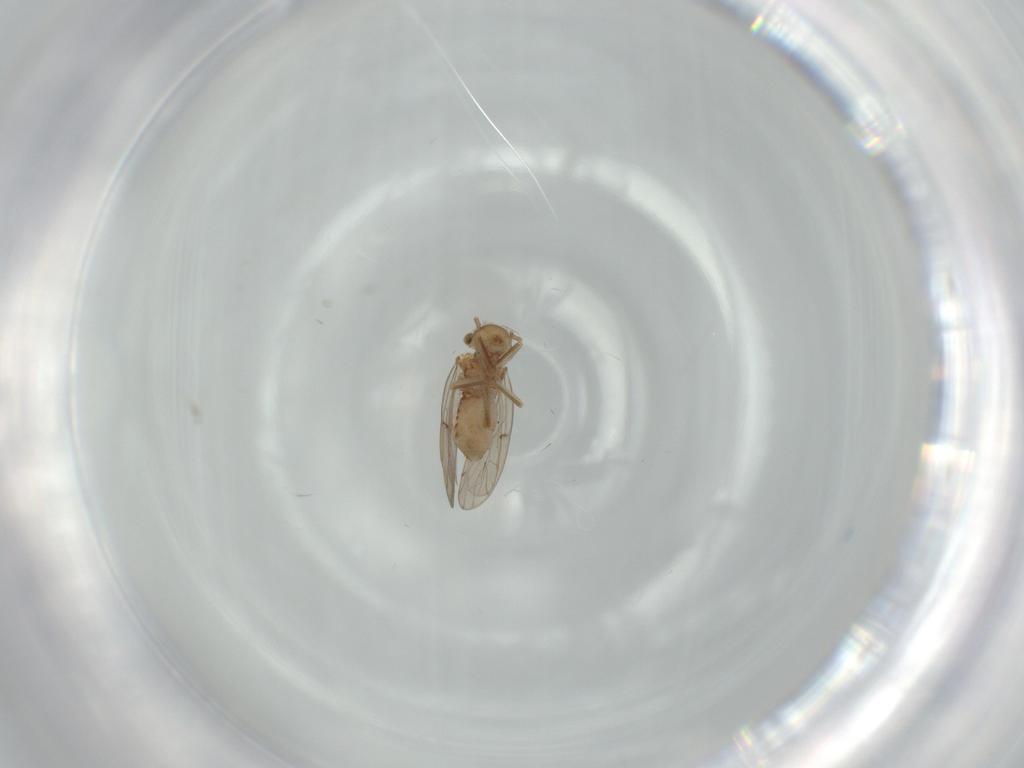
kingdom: Animalia
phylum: Arthropoda
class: Insecta
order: Psocodea
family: Ectopsocidae
